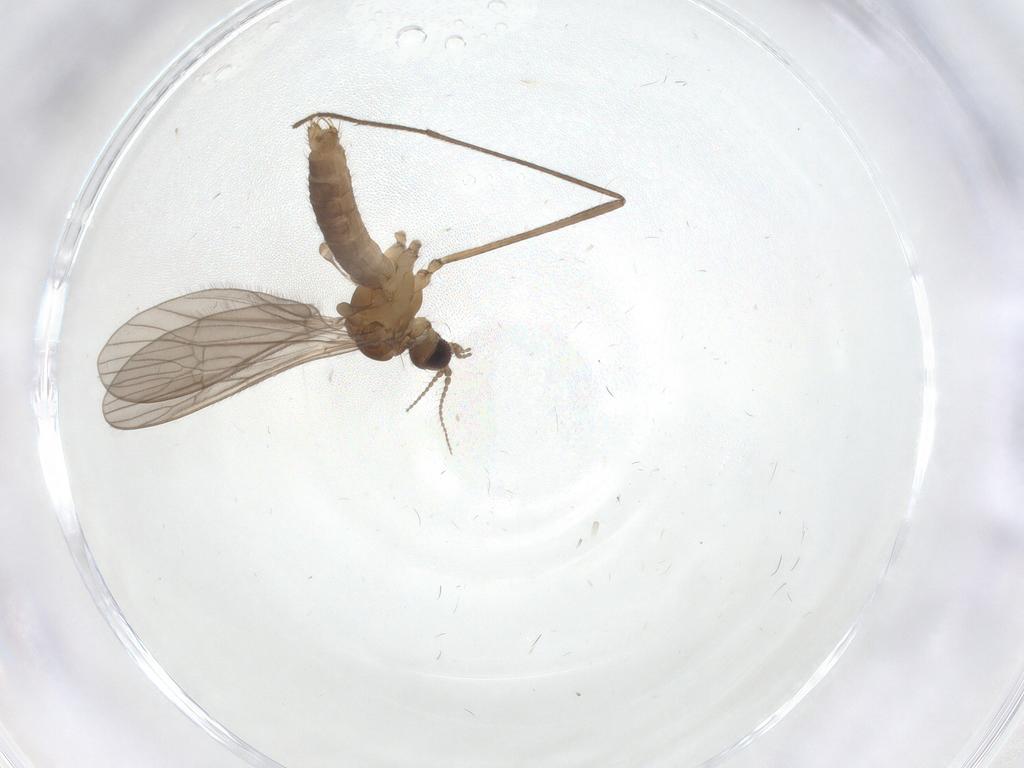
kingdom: Animalia
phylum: Arthropoda
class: Insecta
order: Diptera
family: Limoniidae
